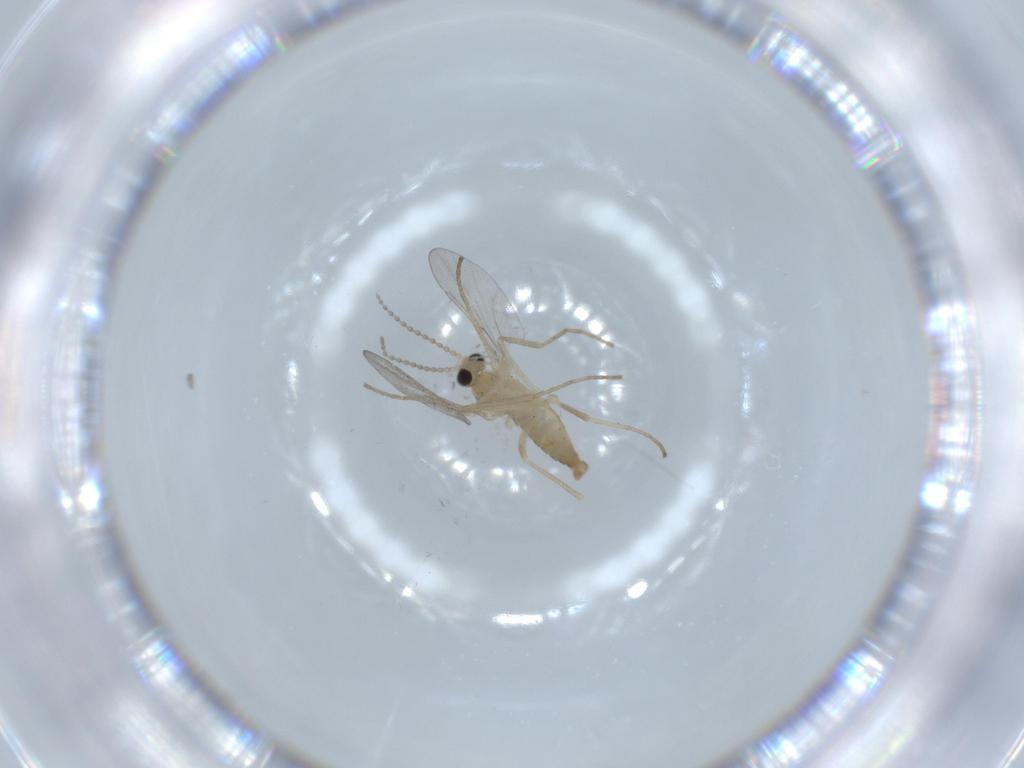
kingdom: Animalia
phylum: Arthropoda
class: Insecta
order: Diptera
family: Cecidomyiidae
